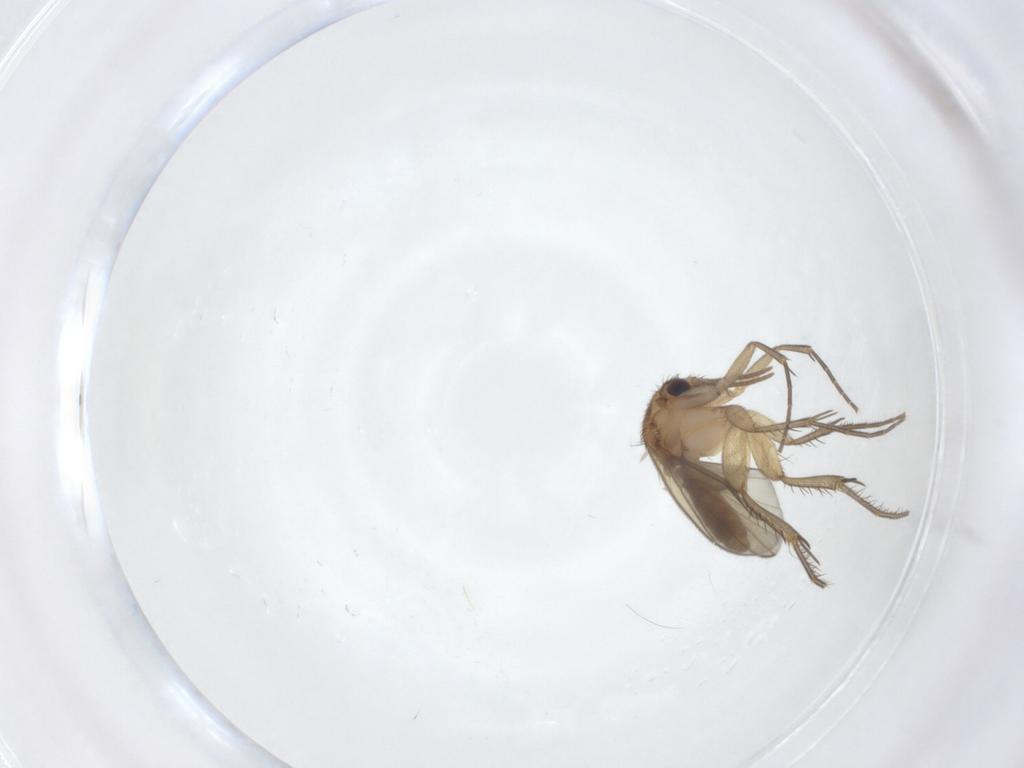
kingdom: Animalia
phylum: Arthropoda
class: Insecta
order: Diptera
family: Mycetophilidae
